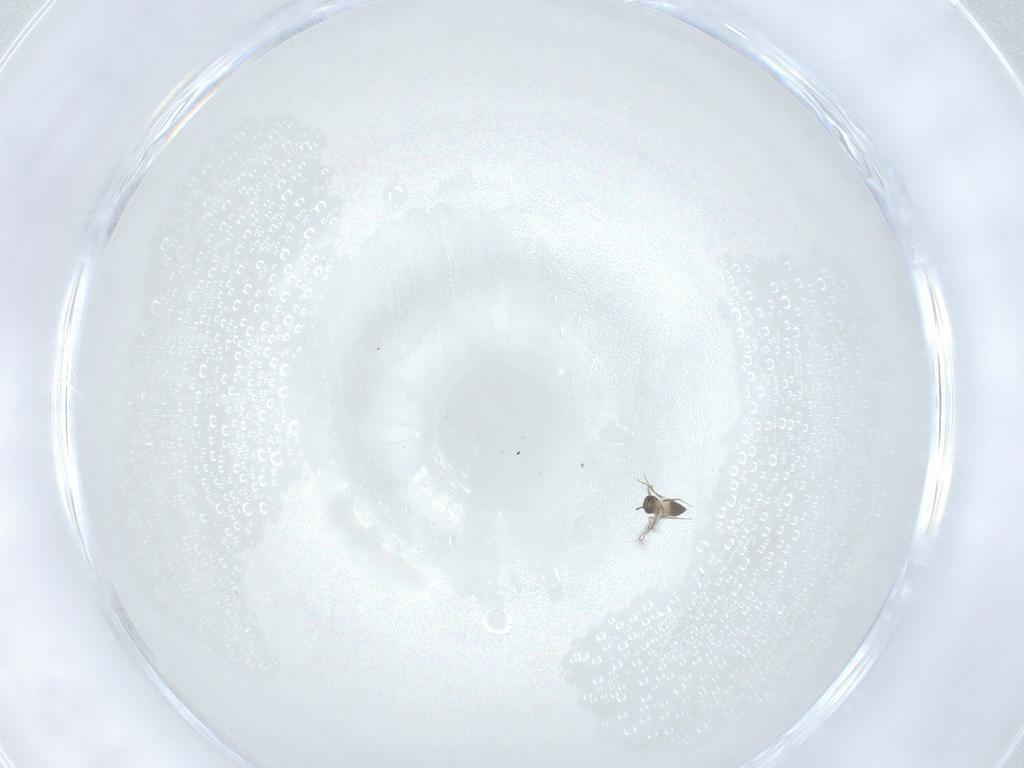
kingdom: Animalia
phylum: Arthropoda
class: Insecta
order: Hymenoptera
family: Mymaridae
